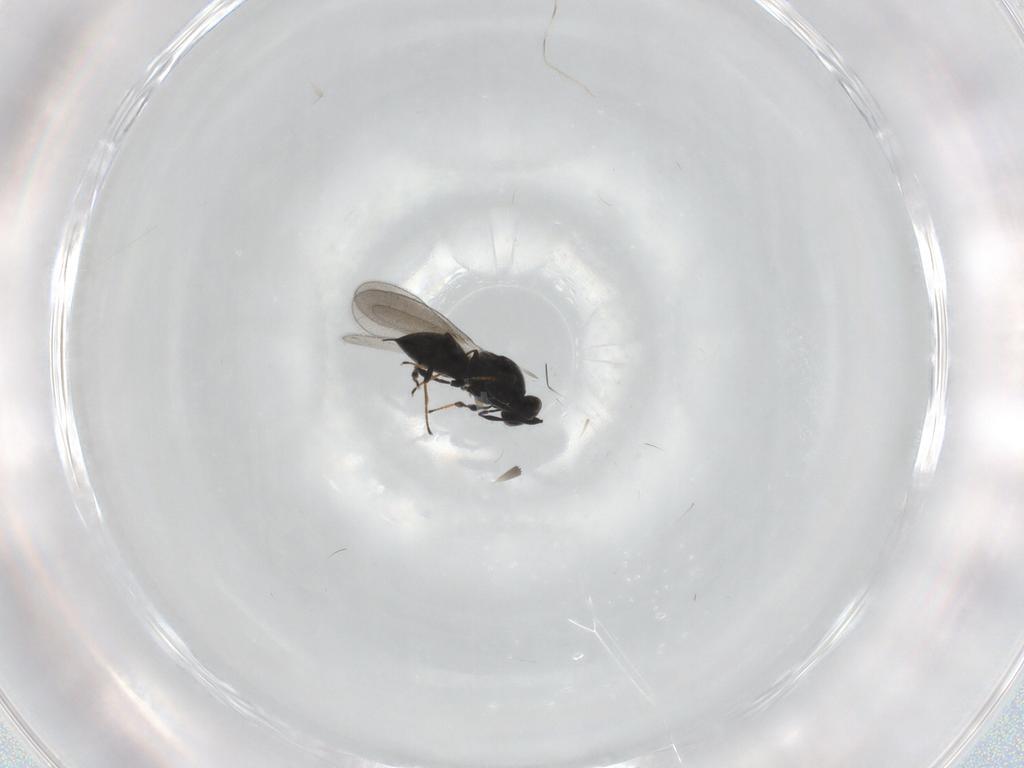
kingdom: Animalia
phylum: Arthropoda
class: Insecta
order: Hymenoptera
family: Platygastridae
